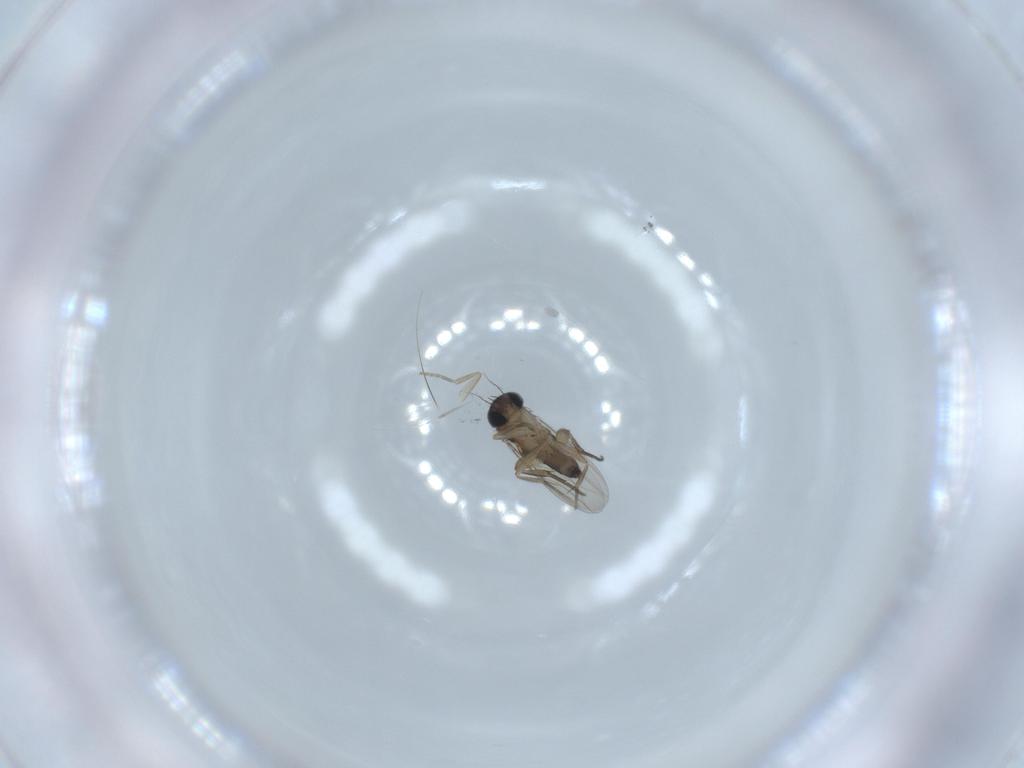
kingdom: Animalia
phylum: Arthropoda
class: Insecta
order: Diptera
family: Phoridae
